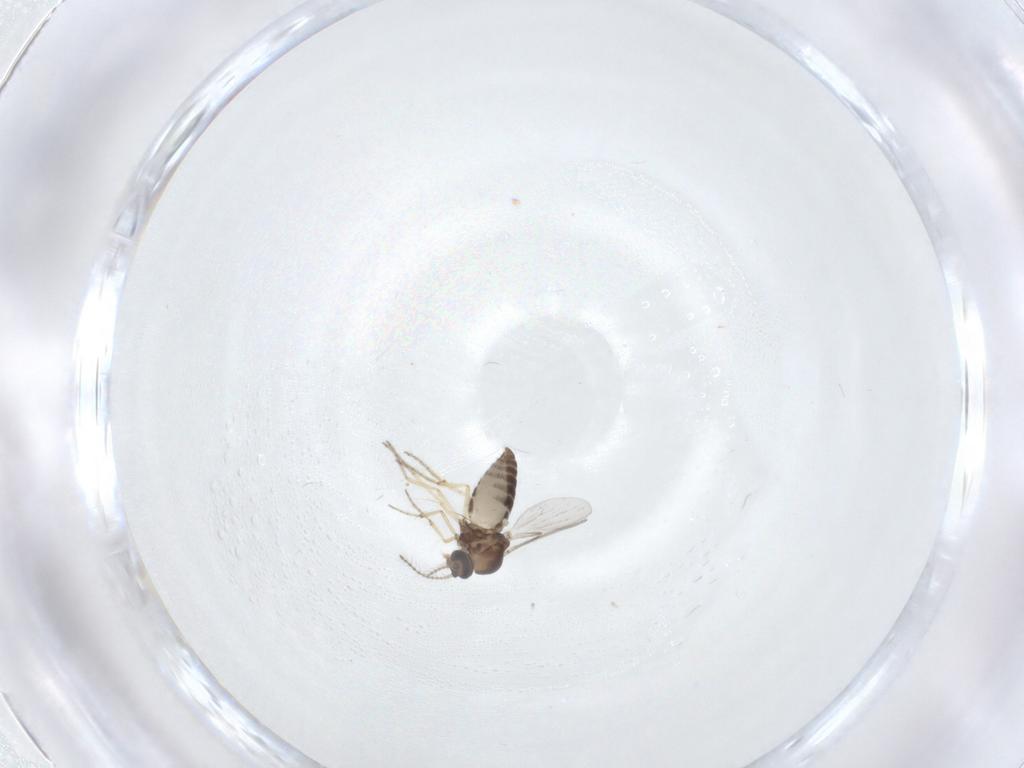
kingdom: Animalia
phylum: Arthropoda
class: Insecta
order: Diptera
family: Ceratopogonidae
